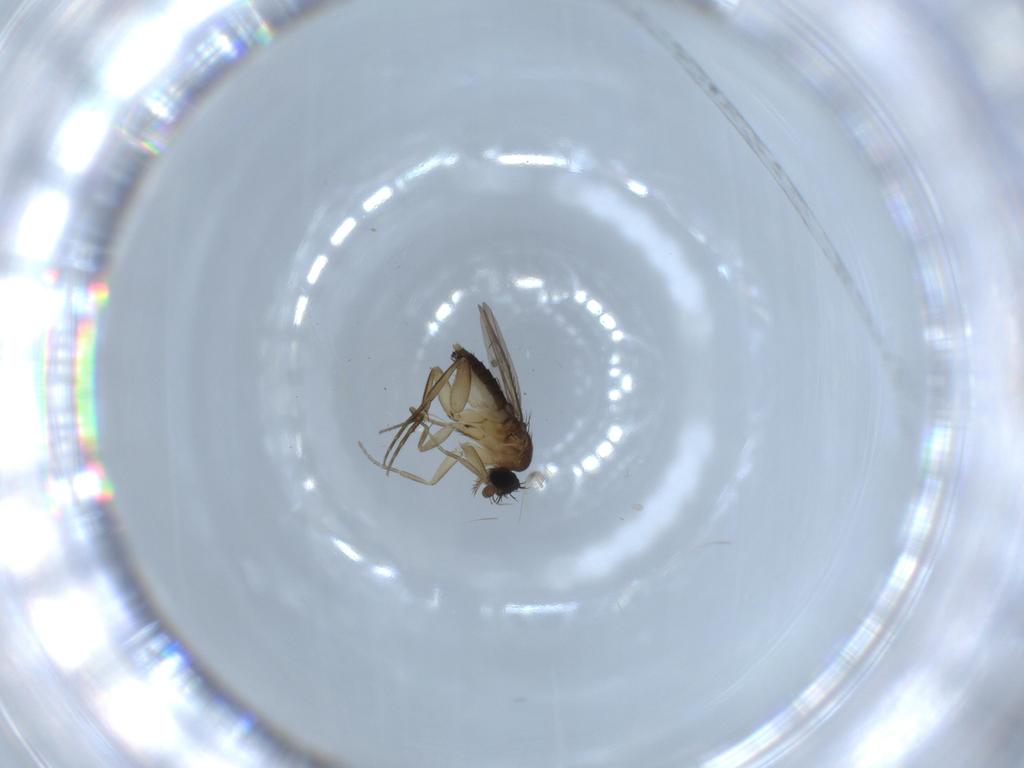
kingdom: Animalia
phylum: Arthropoda
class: Insecta
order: Diptera
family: Phoridae
